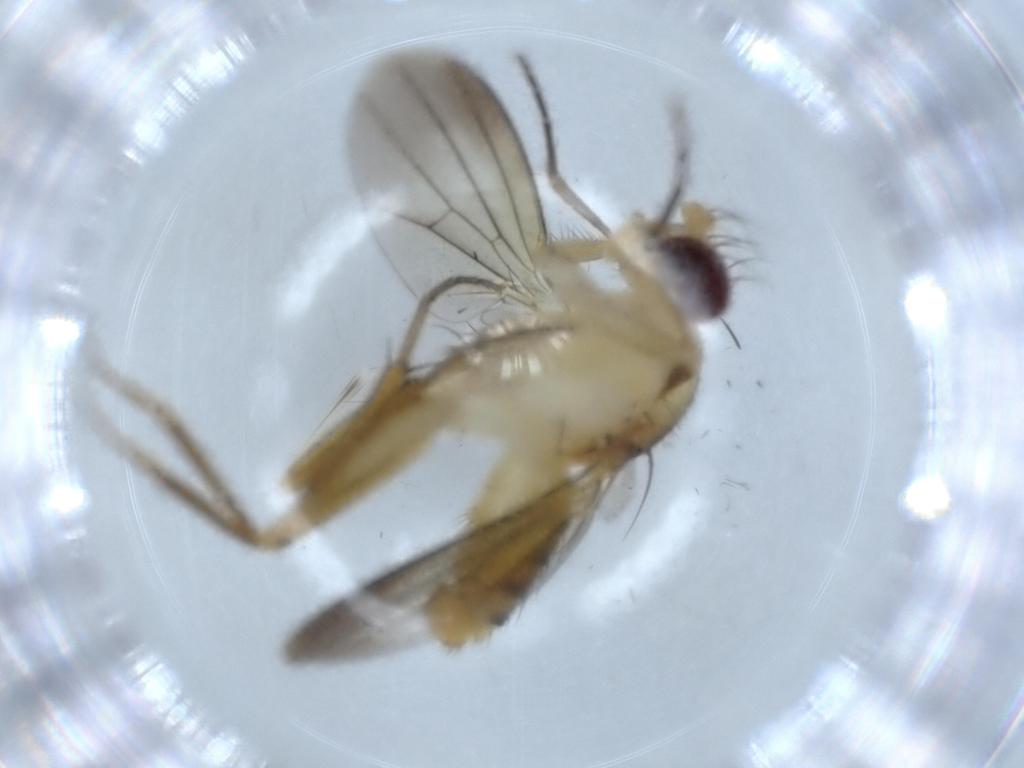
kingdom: Animalia
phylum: Arthropoda
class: Insecta
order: Diptera
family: Clusiidae
